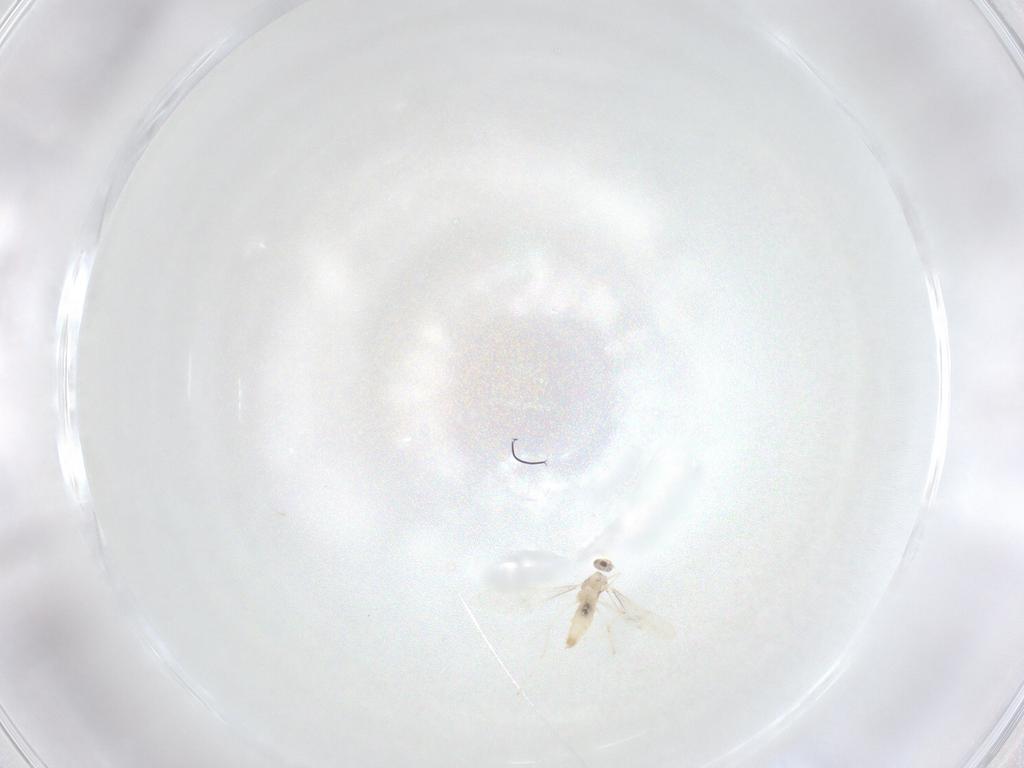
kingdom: Animalia
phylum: Arthropoda
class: Insecta
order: Diptera
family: Cecidomyiidae
